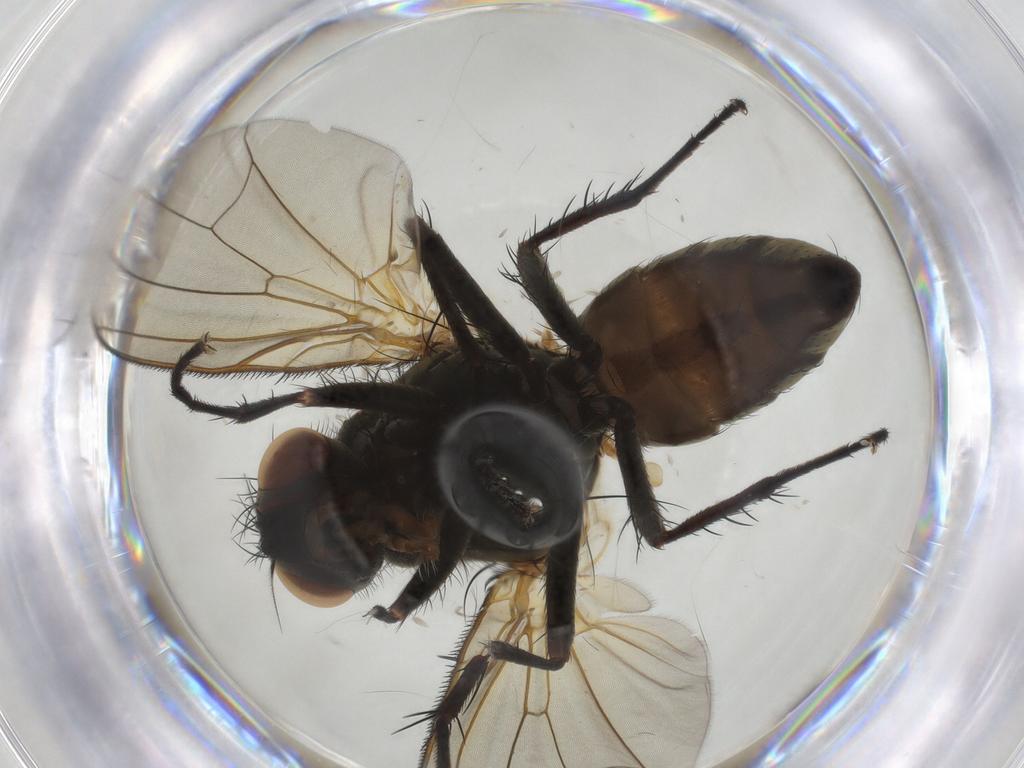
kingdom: Animalia
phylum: Arthropoda
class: Insecta
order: Diptera
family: Anthomyiidae
